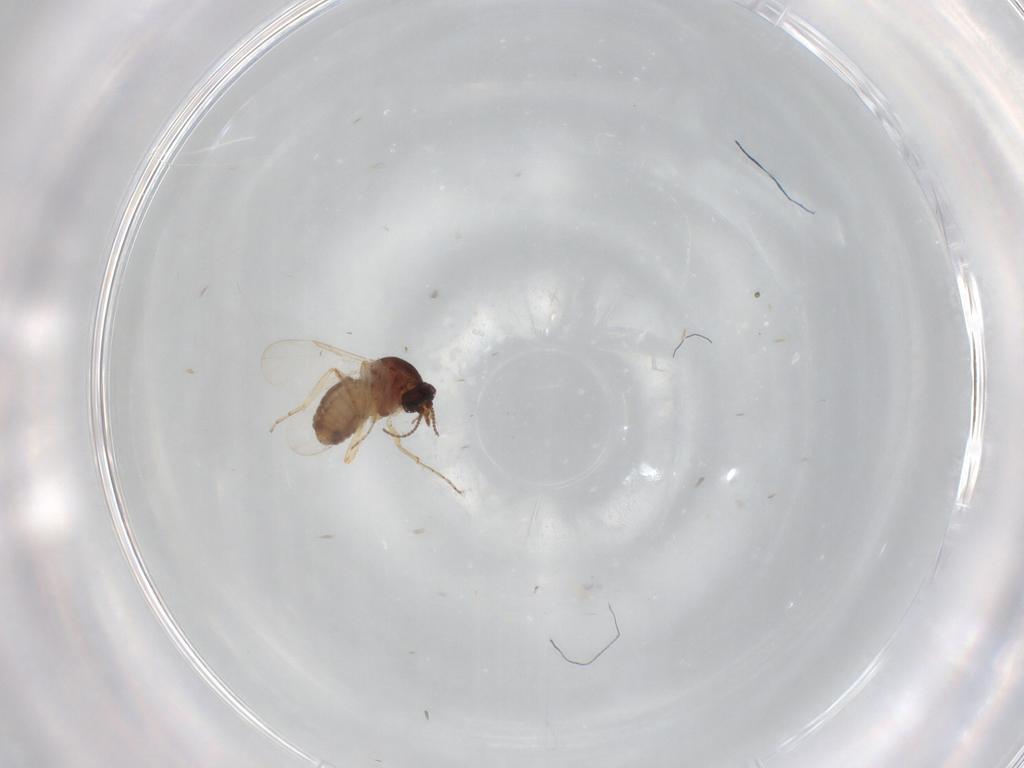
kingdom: Animalia
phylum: Arthropoda
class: Insecta
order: Diptera
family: Ceratopogonidae
